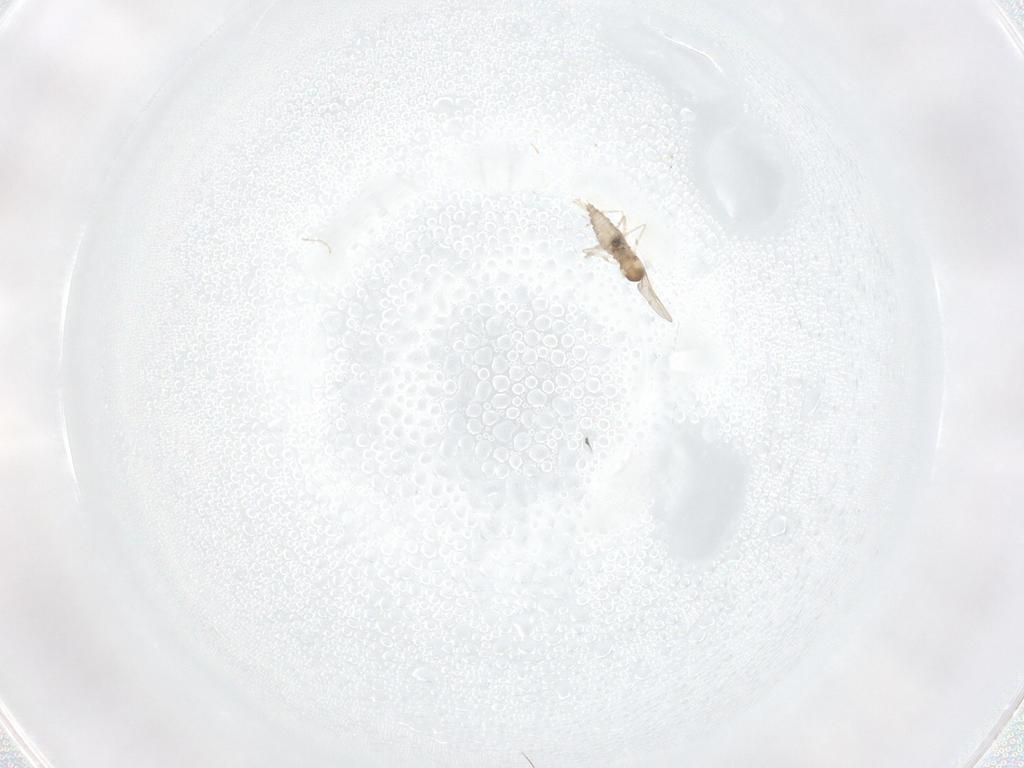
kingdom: Animalia
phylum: Arthropoda
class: Insecta
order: Diptera
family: Cecidomyiidae
